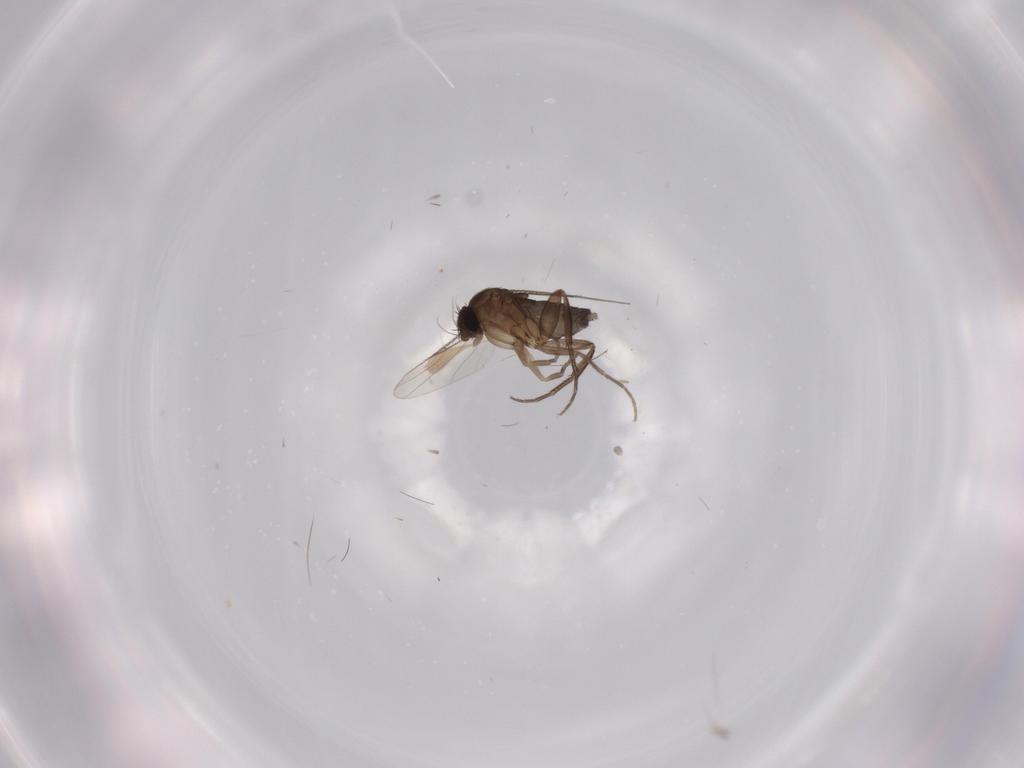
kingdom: Animalia
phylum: Arthropoda
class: Insecta
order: Diptera
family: Phoridae
